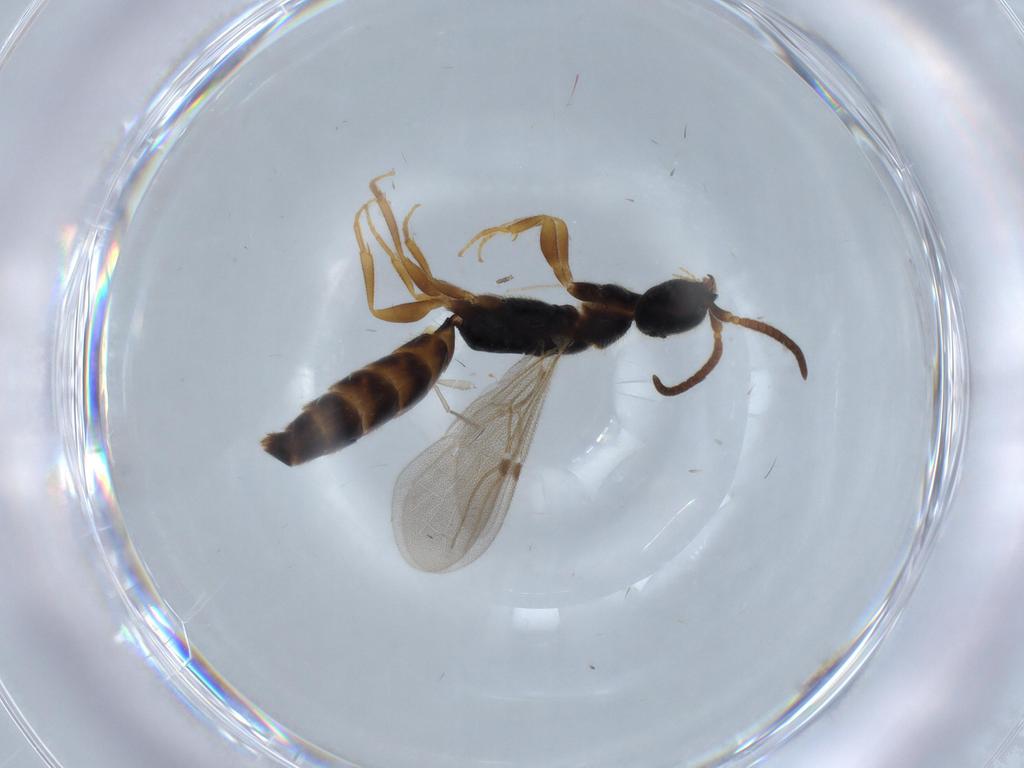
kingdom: Animalia
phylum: Arthropoda
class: Insecta
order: Hymenoptera
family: Bethylidae
